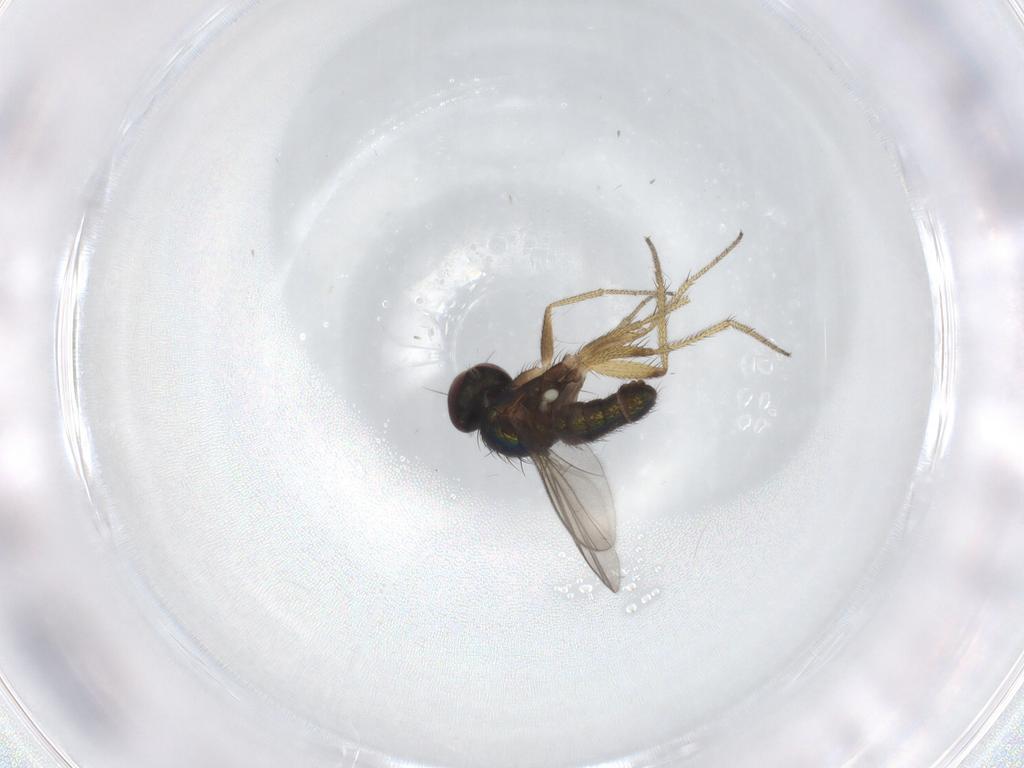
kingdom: Animalia
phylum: Arthropoda
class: Insecta
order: Diptera
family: Dolichopodidae
